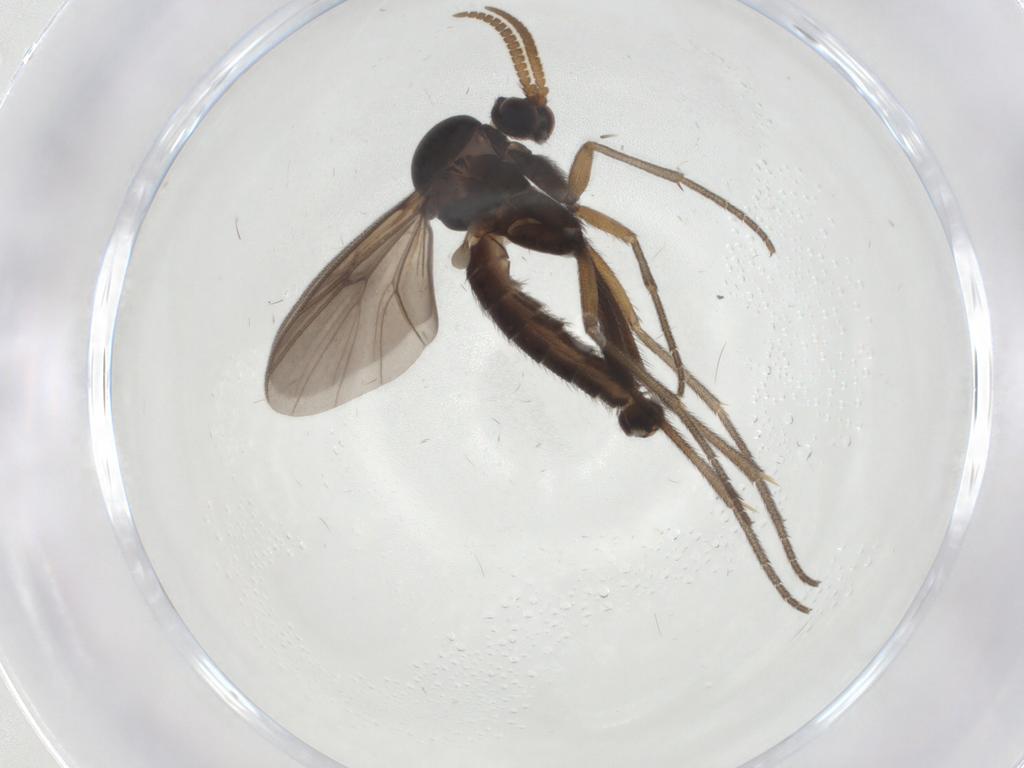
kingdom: Animalia
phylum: Arthropoda
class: Insecta
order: Diptera
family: Mycetophilidae
